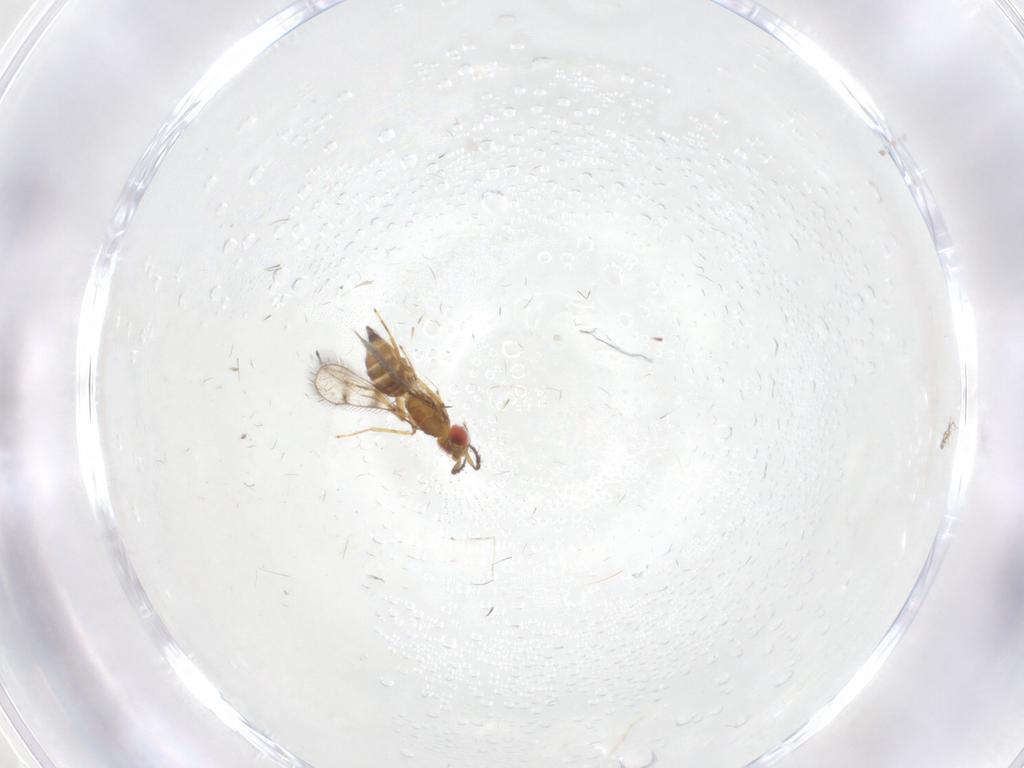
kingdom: Animalia
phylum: Arthropoda
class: Insecta
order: Hymenoptera
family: Eulophidae
